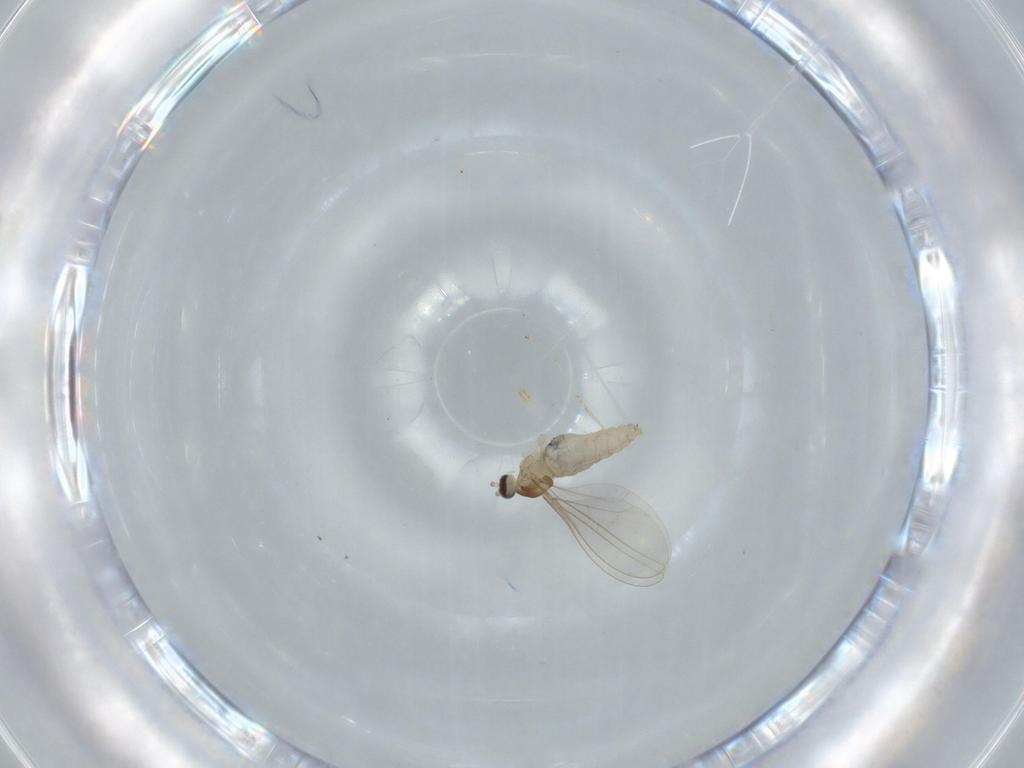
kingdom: Animalia
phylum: Arthropoda
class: Insecta
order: Diptera
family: Cecidomyiidae
